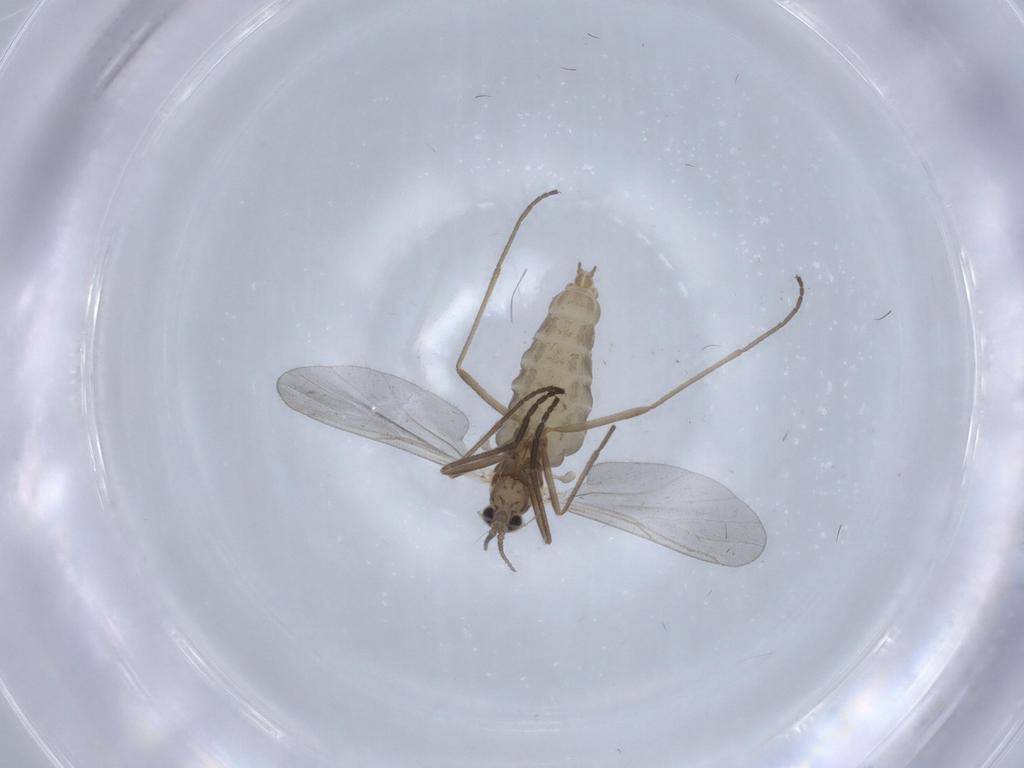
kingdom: Animalia
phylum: Arthropoda
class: Insecta
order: Diptera
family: Cecidomyiidae
